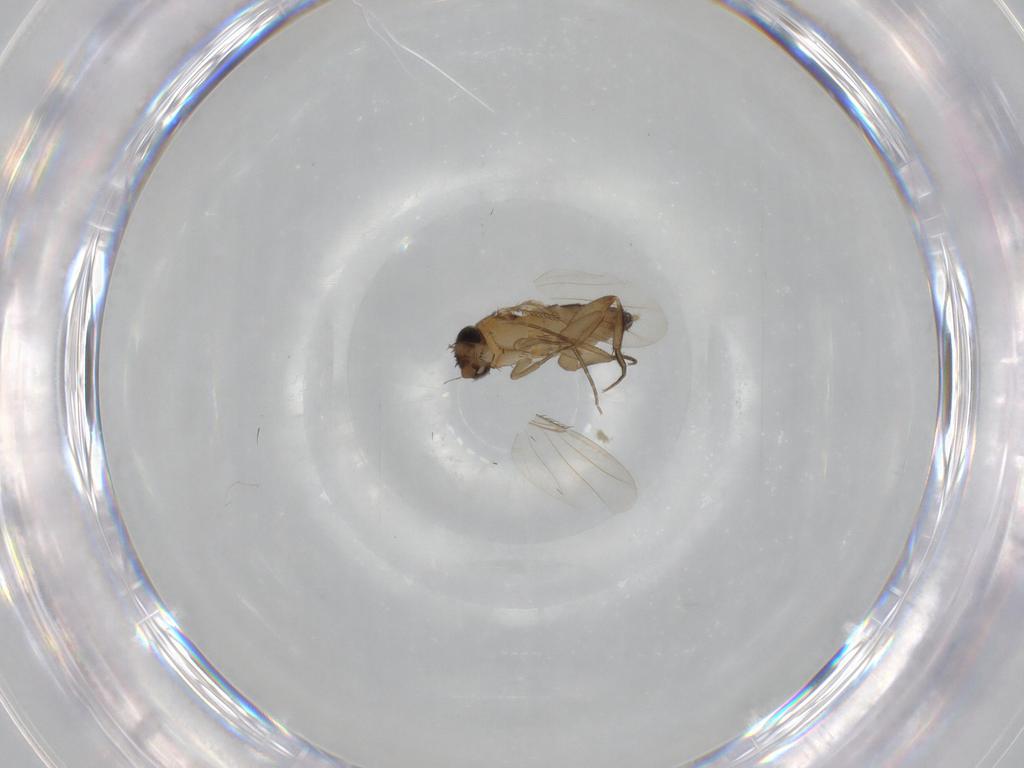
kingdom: Animalia
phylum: Arthropoda
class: Insecta
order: Diptera
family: Phoridae
